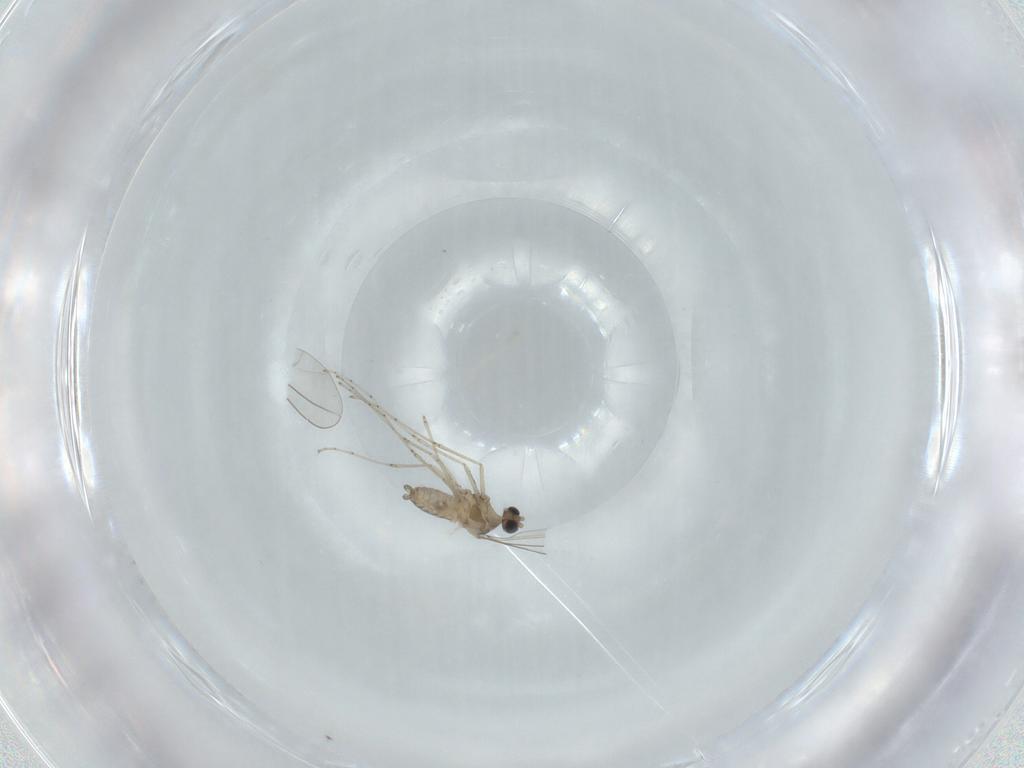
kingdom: Animalia
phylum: Arthropoda
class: Insecta
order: Diptera
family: Cecidomyiidae
